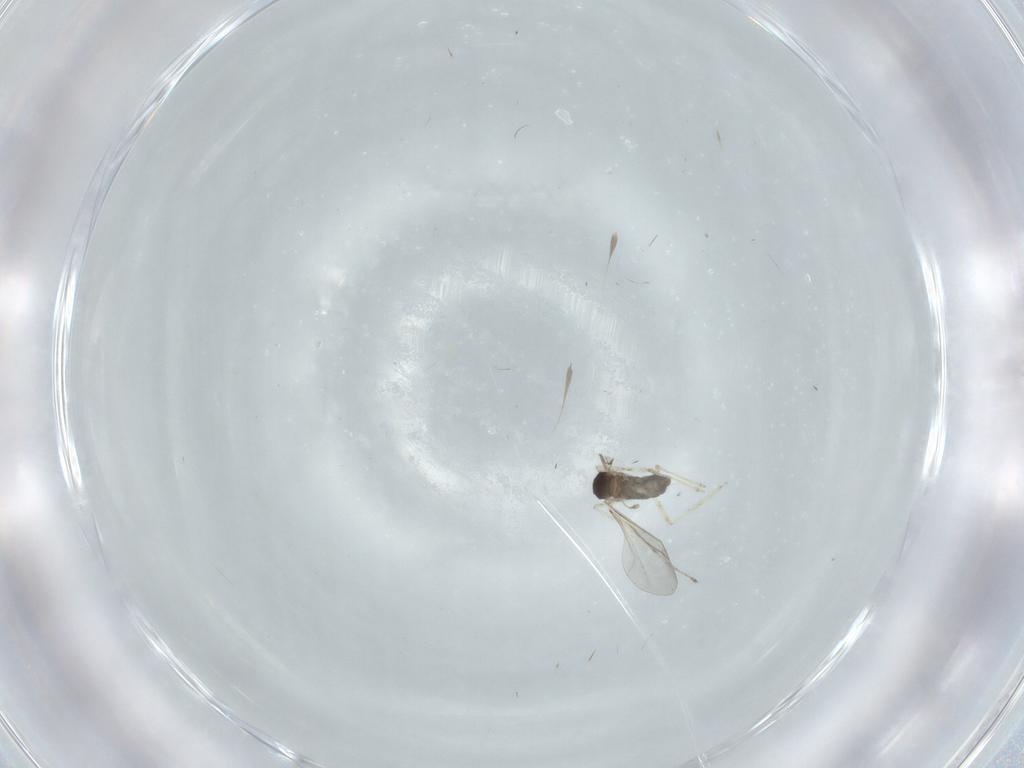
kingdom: Animalia
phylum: Arthropoda
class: Insecta
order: Diptera
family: Cecidomyiidae
